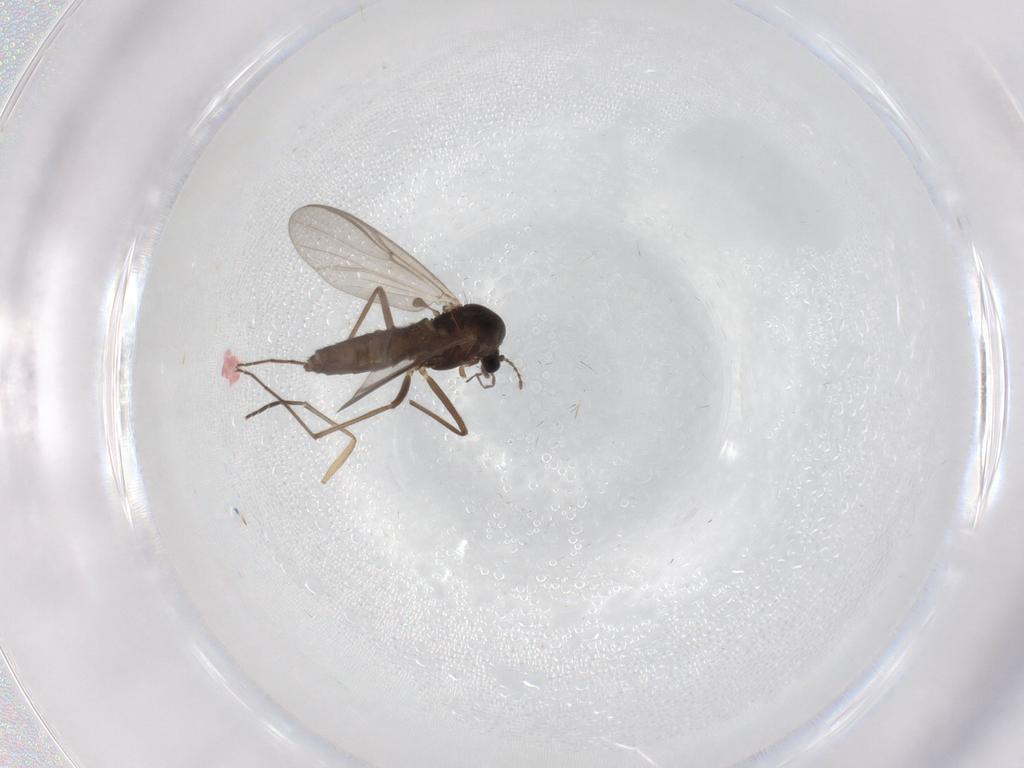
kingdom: Animalia
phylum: Arthropoda
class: Insecta
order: Diptera
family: Chironomidae
